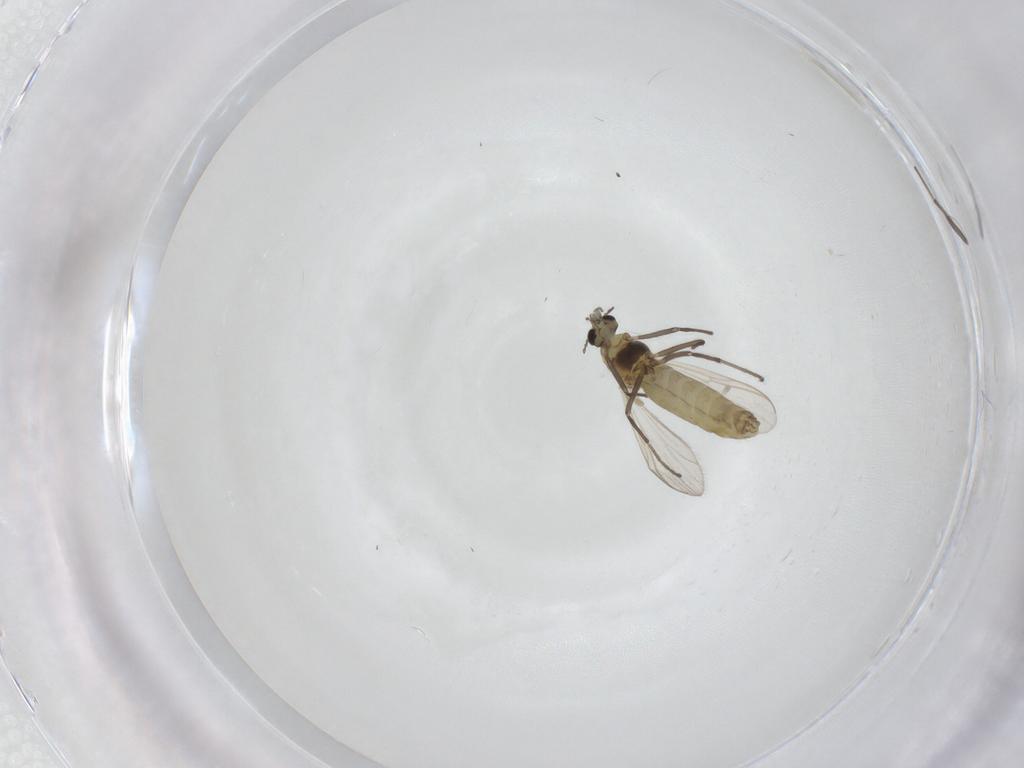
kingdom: Animalia
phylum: Arthropoda
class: Insecta
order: Diptera
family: Chironomidae
